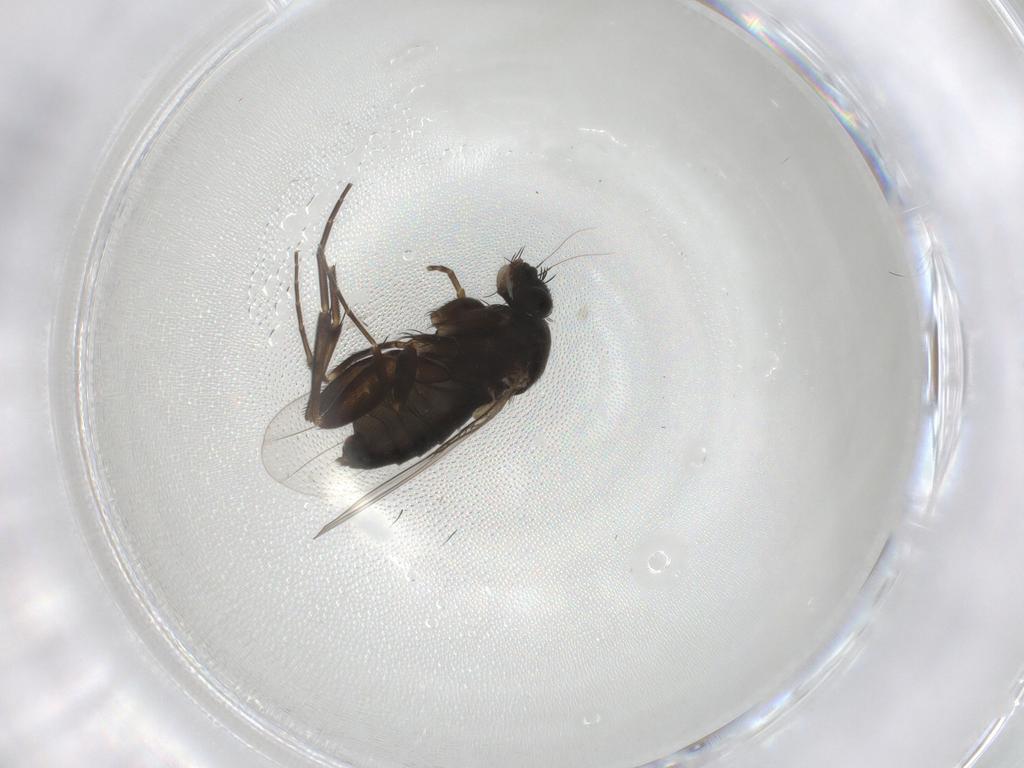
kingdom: Animalia
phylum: Arthropoda
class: Insecta
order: Diptera
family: Phoridae
